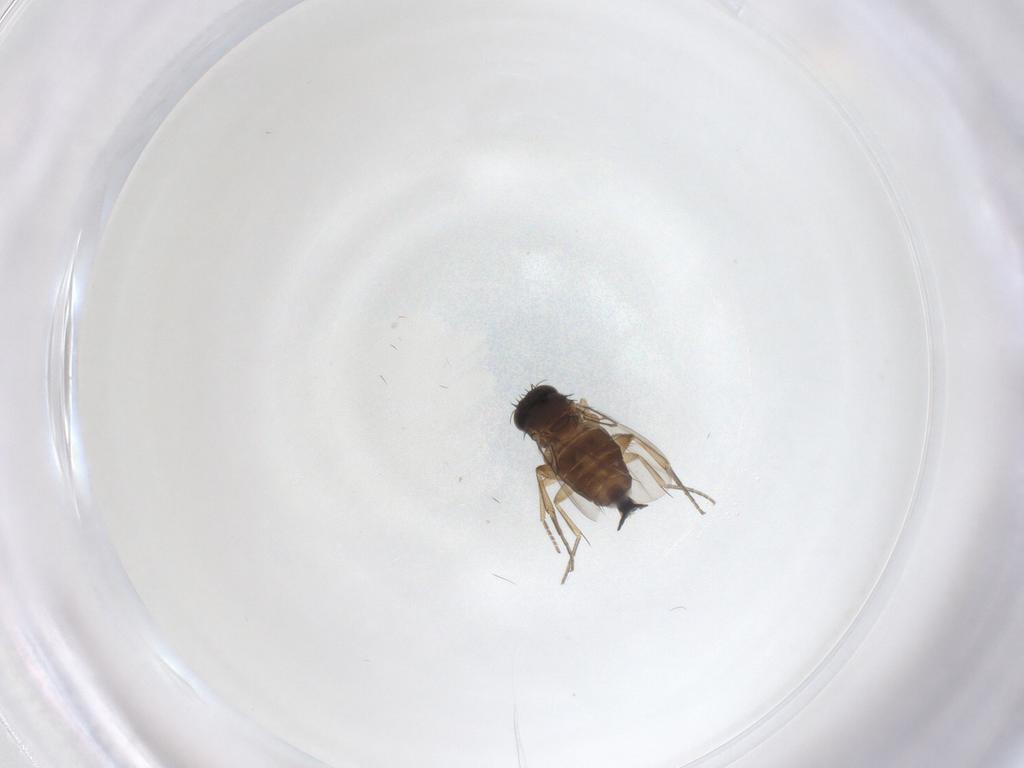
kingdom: Animalia
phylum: Arthropoda
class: Insecta
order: Diptera
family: Phoridae
